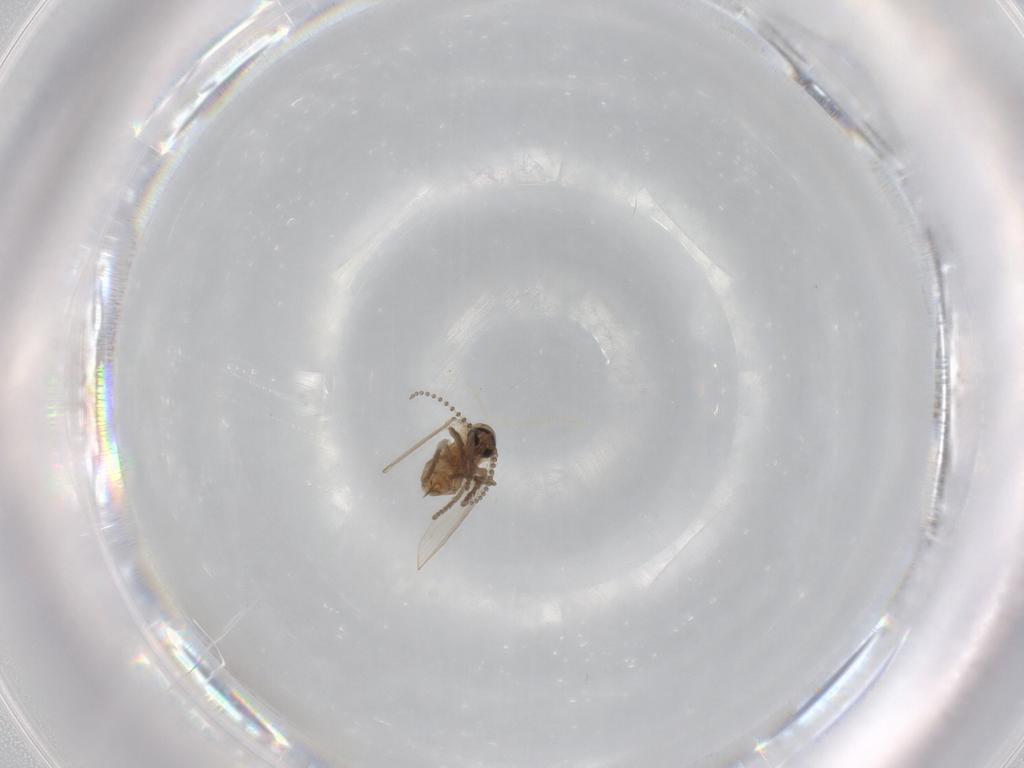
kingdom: Animalia
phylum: Arthropoda
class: Insecta
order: Diptera
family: Psychodidae
